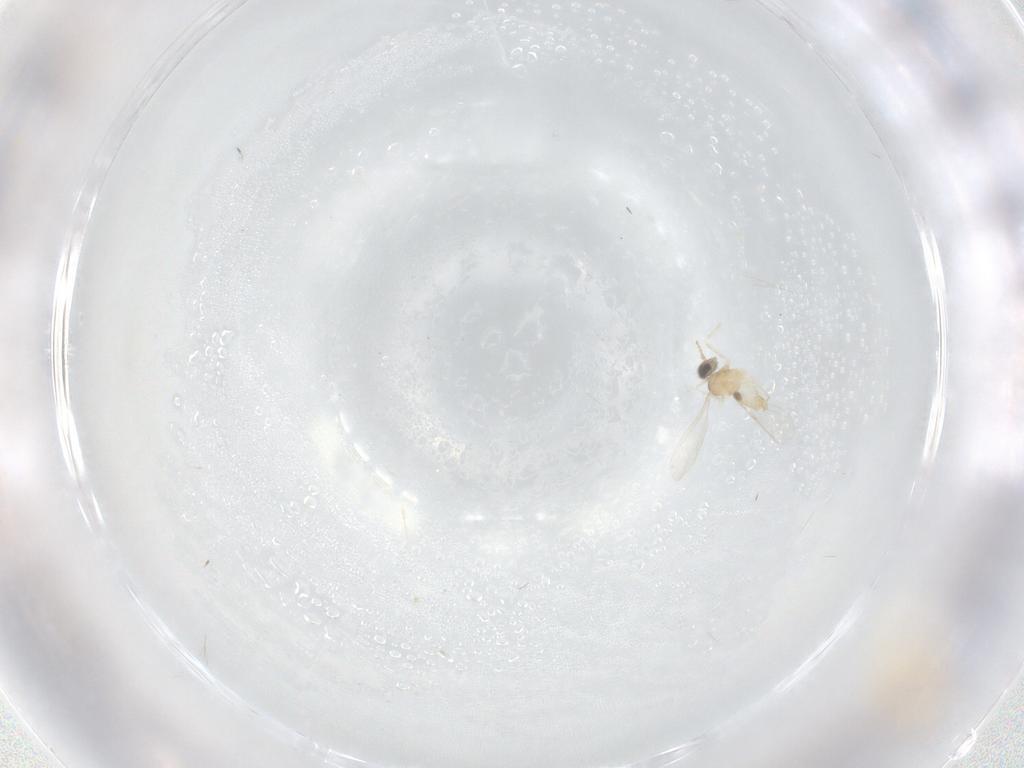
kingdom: Animalia
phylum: Arthropoda
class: Insecta
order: Diptera
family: Cecidomyiidae
